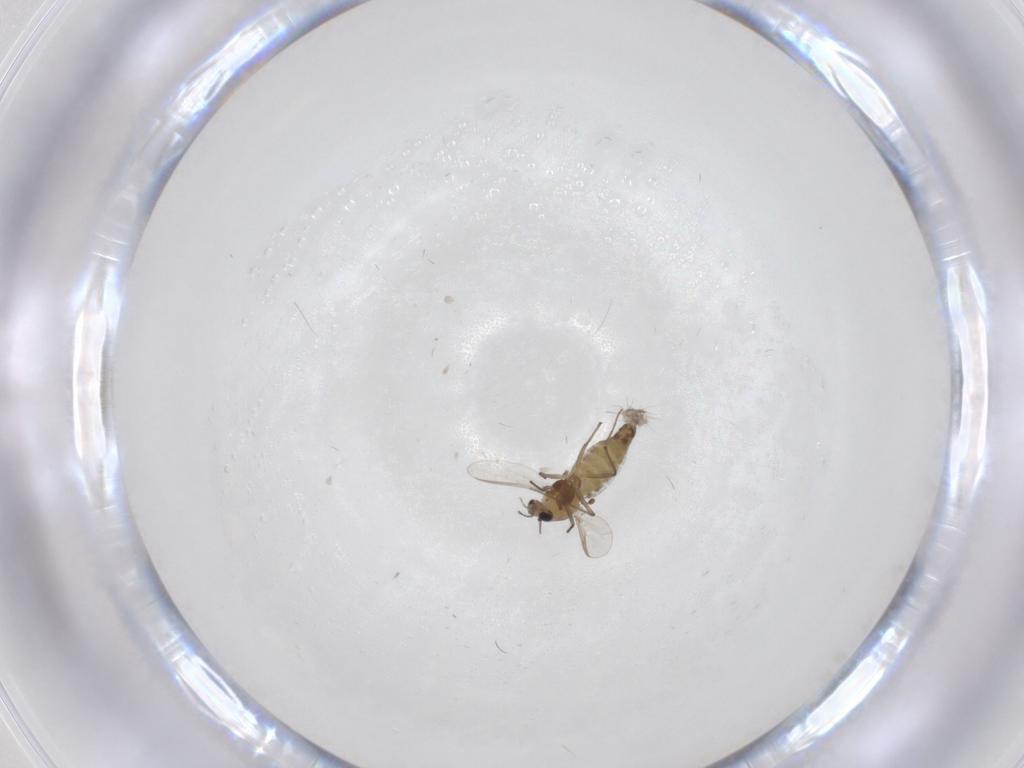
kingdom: Animalia
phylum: Arthropoda
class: Insecta
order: Diptera
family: Chironomidae
